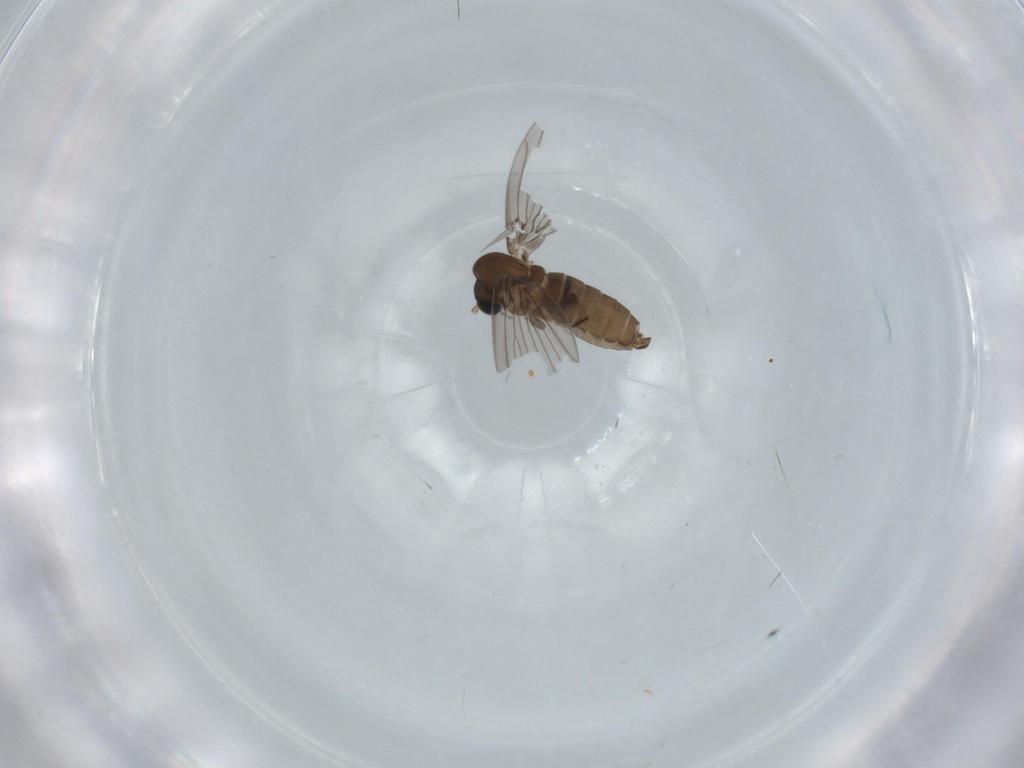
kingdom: Animalia
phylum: Arthropoda
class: Insecta
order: Diptera
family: Psychodidae
